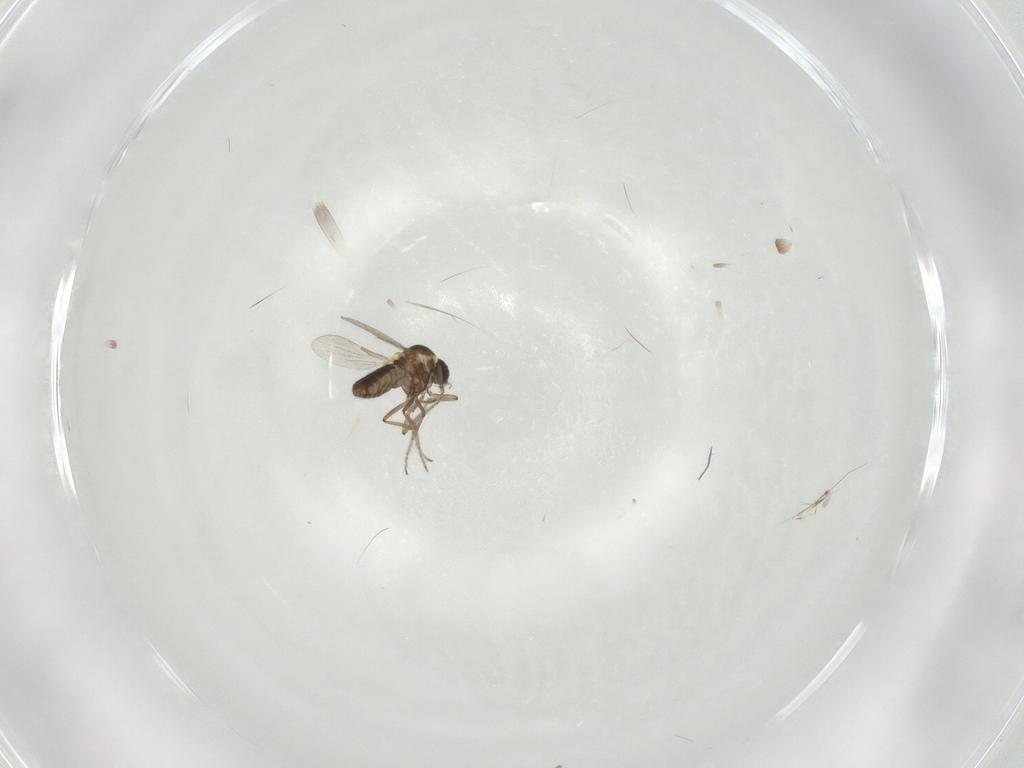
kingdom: Animalia
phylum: Arthropoda
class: Insecta
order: Diptera
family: Ceratopogonidae
